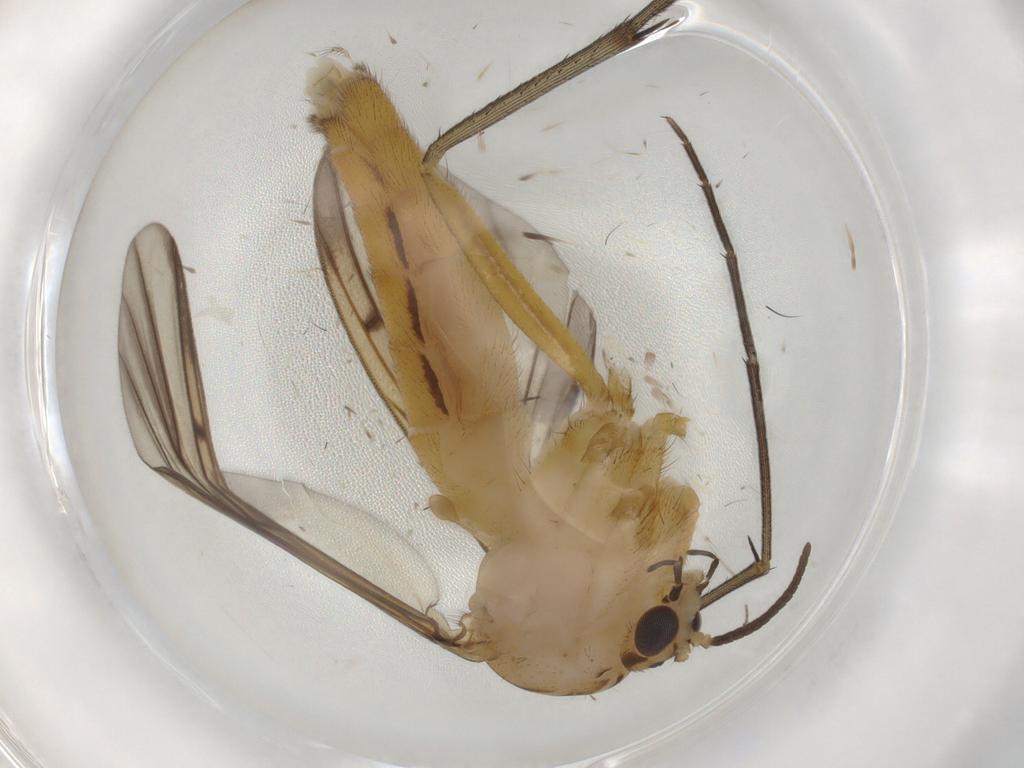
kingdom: Animalia
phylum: Arthropoda
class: Insecta
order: Diptera
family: Mycetophilidae
